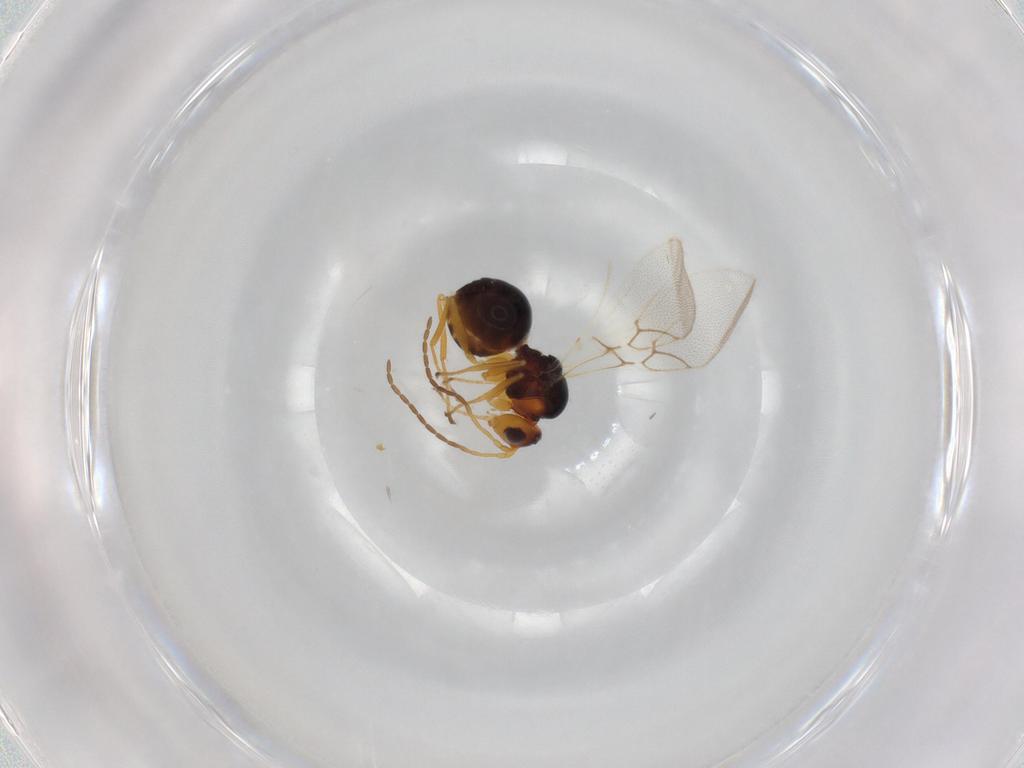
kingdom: Animalia
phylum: Arthropoda
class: Insecta
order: Hymenoptera
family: Figitidae
